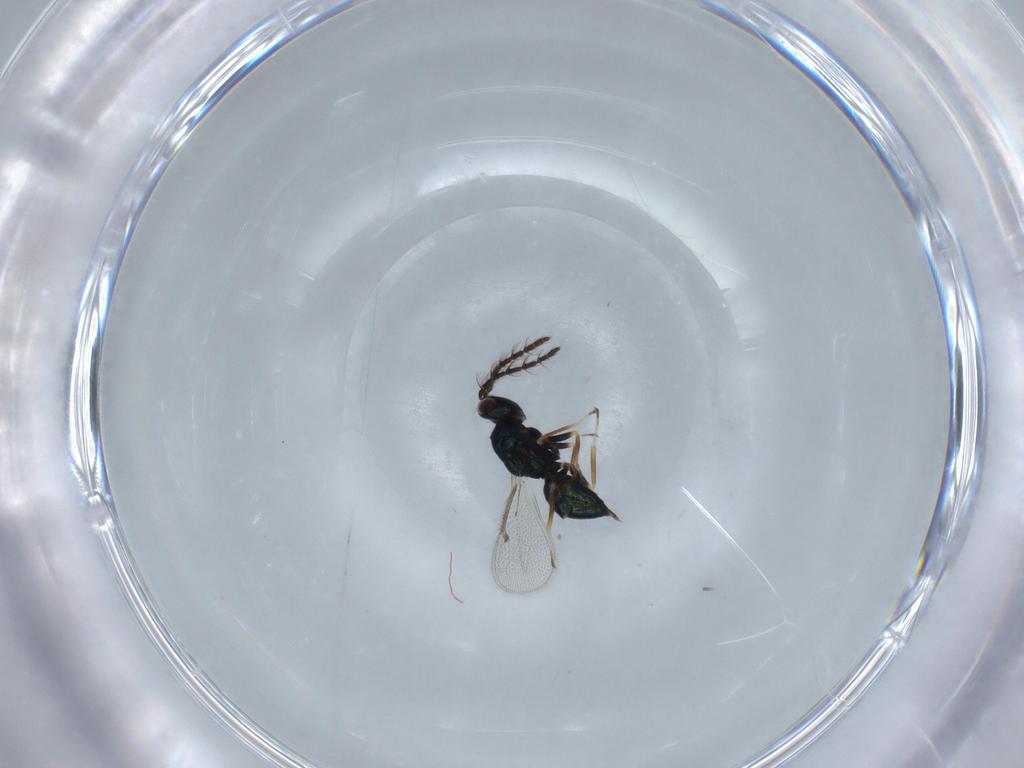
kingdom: Animalia
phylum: Arthropoda
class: Insecta
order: Hymenoptera
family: Eulophidae
